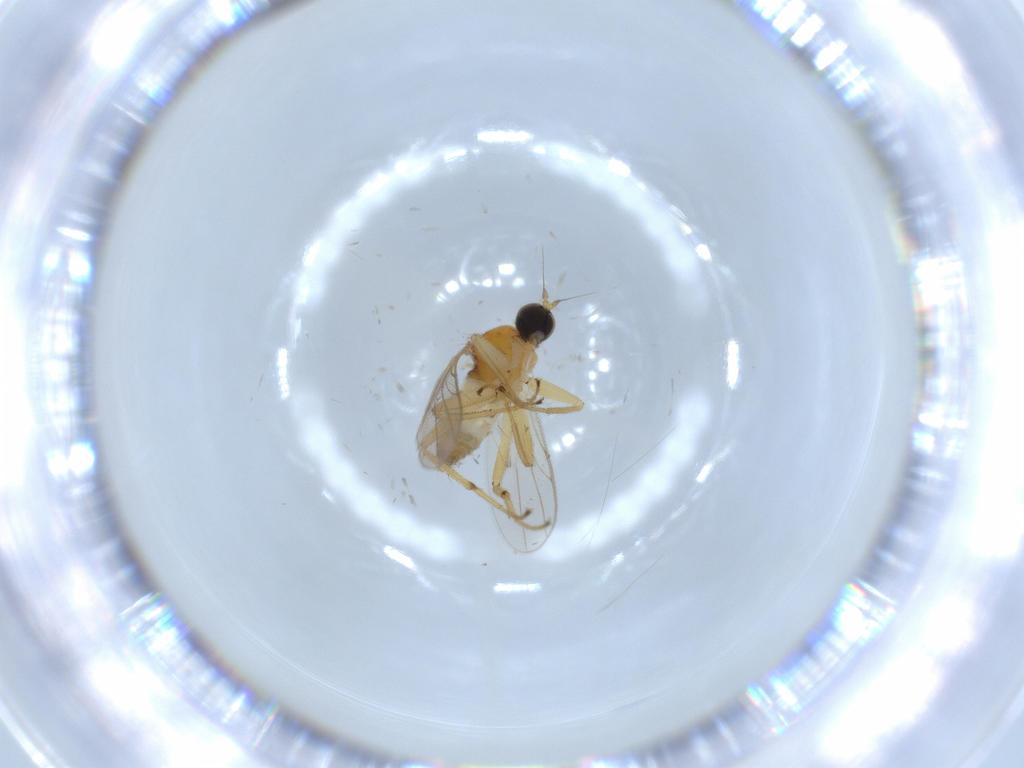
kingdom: Animalia
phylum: Arthropoda
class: Insecta
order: Diptera
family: Hybotidae
